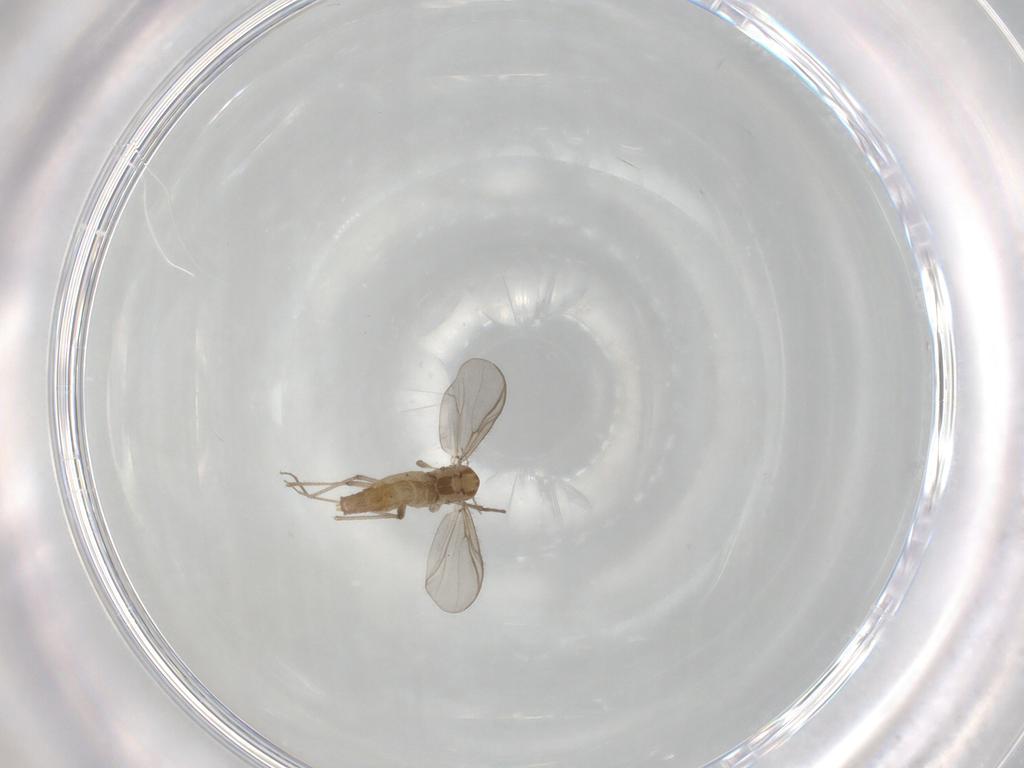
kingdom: Animalia
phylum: Arthropoda
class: Insecta
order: Diptera
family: Chironomidae
